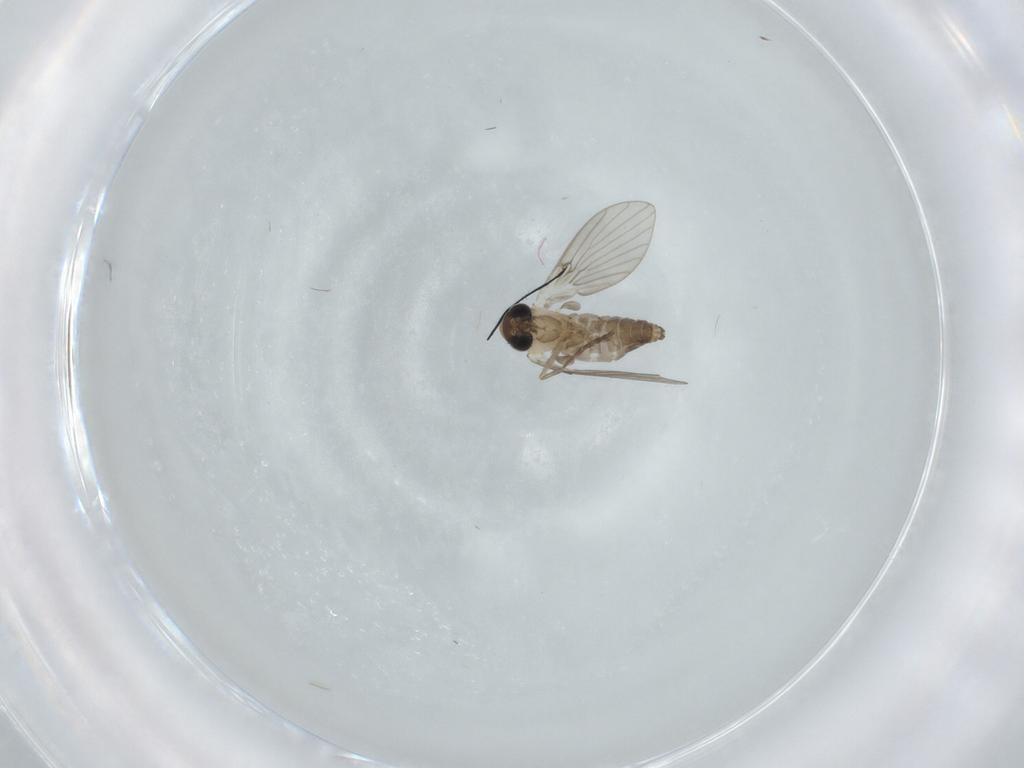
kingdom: Animalia
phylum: Arthropoda
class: Insecta
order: Diptera
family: Psychodidae
